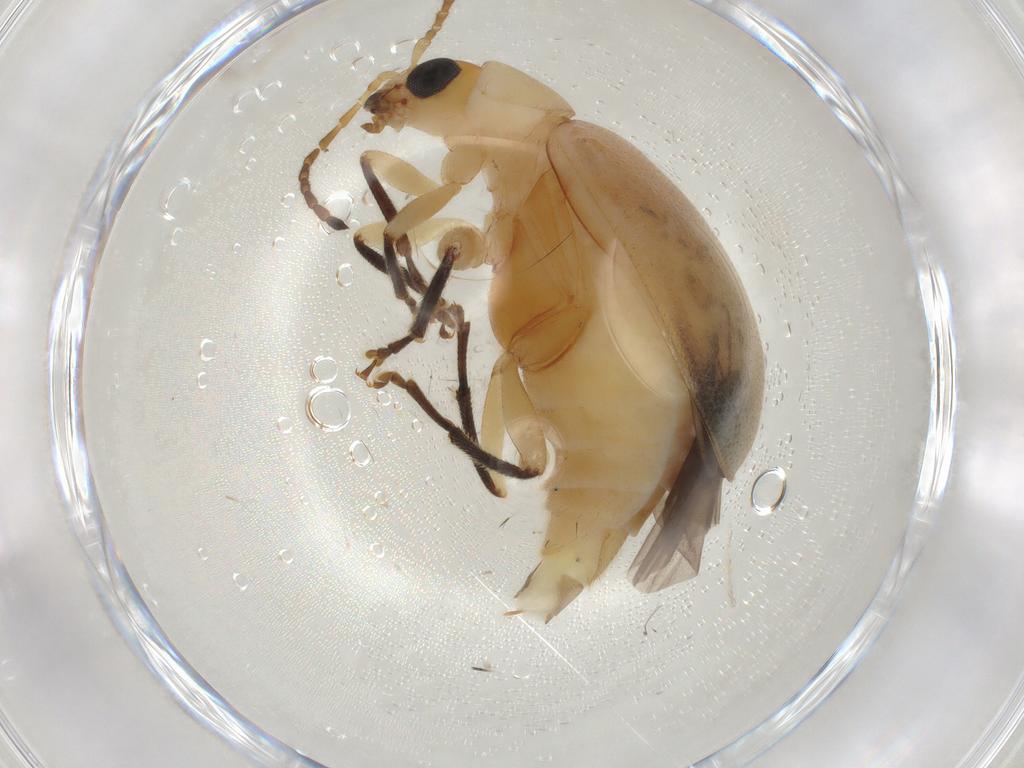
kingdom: Animalia
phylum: Arthropoda
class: Insecta
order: Coleoptera
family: Chrysomelidae
